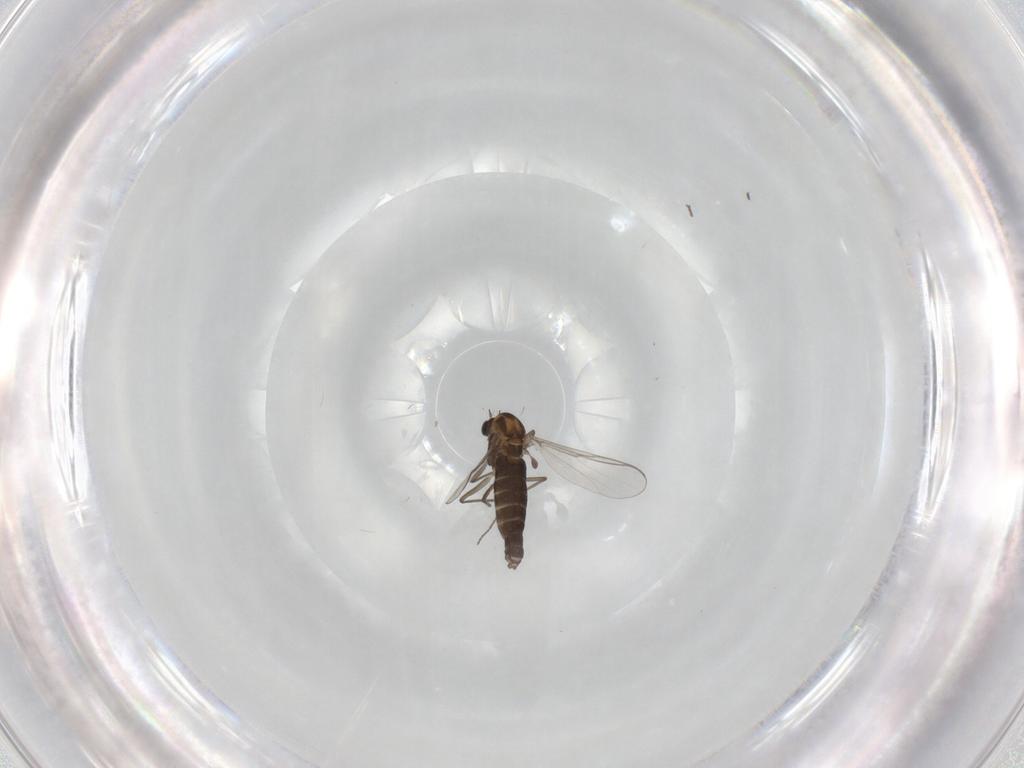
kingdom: Animalia
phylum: Arthropoda
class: Insecta
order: Diptera
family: Chironomidae
